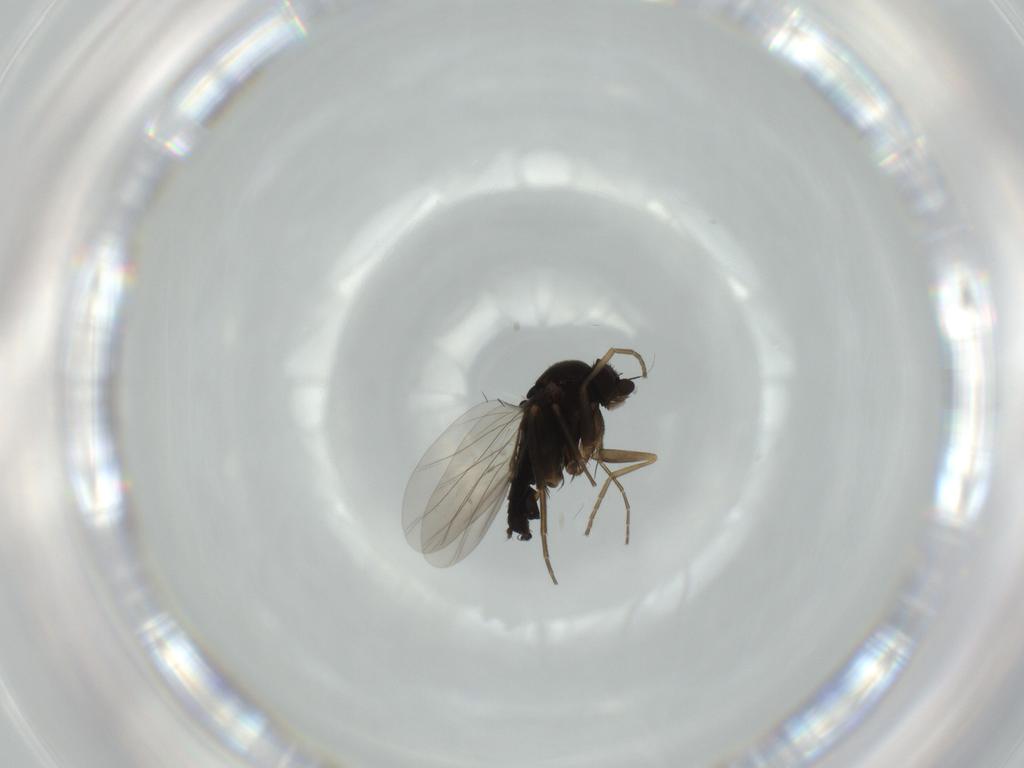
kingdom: Animalia
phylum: Arthropoda
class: Insecta
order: Diptera
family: Phoridae
